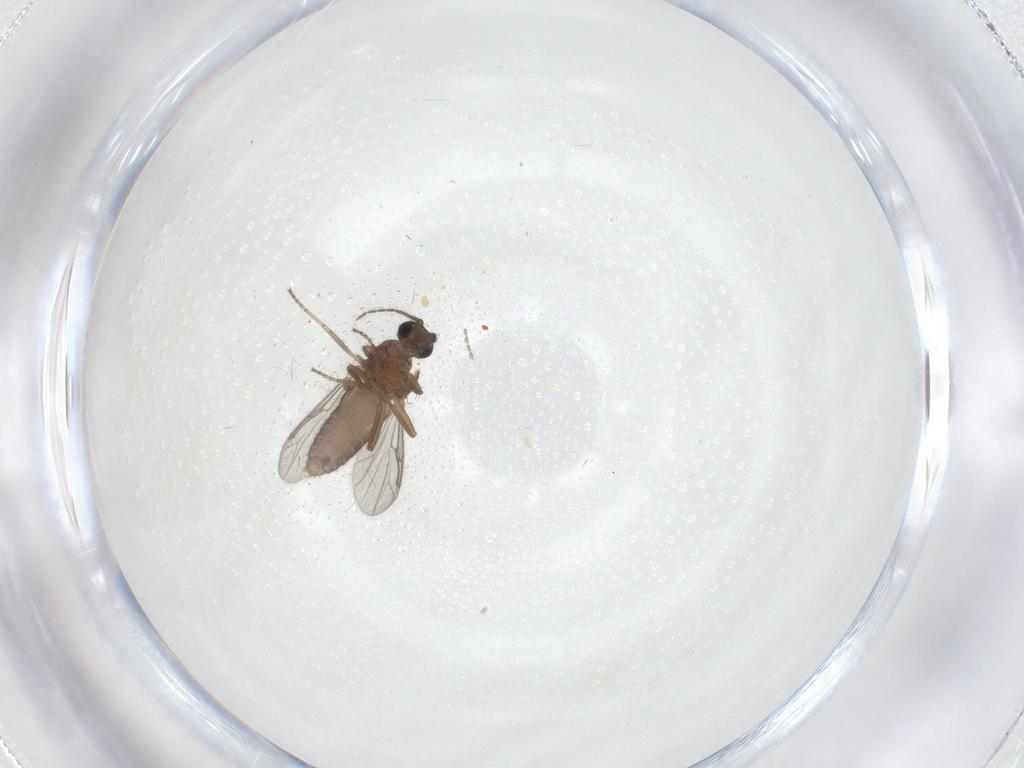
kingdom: Animalia
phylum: Arthropoda
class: Insecta
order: Diptera
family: Ceratopogonidae
